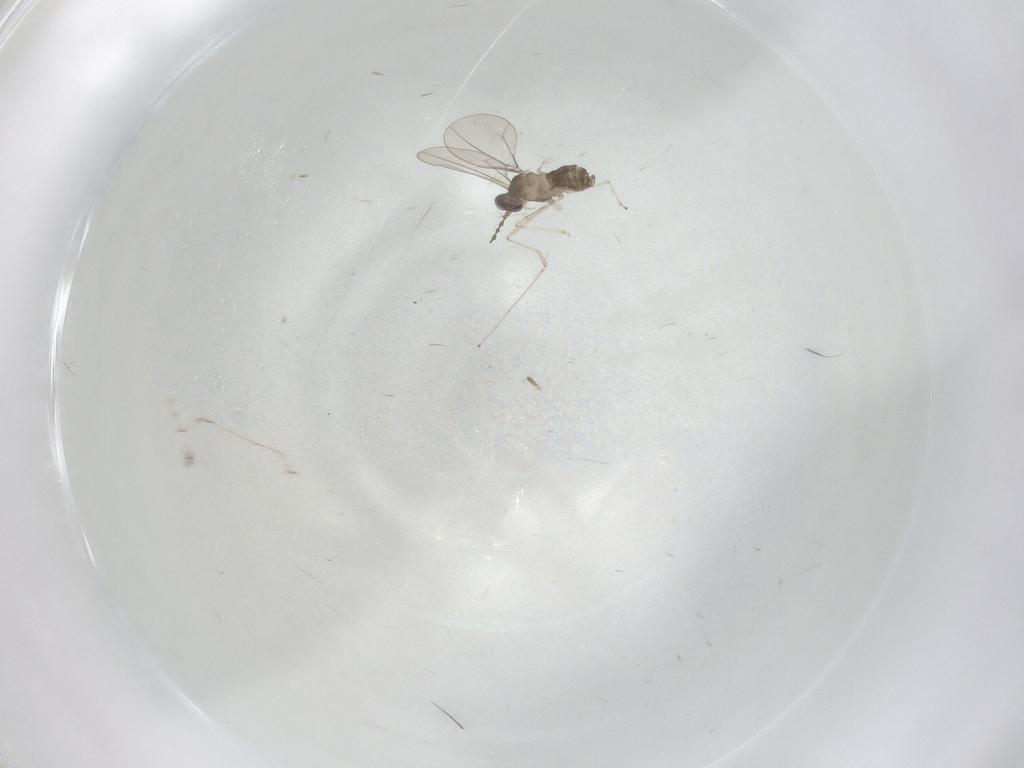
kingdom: Animalia
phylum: Arthropoda
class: Insecta
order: Diptera
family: Cecidomyiidae
